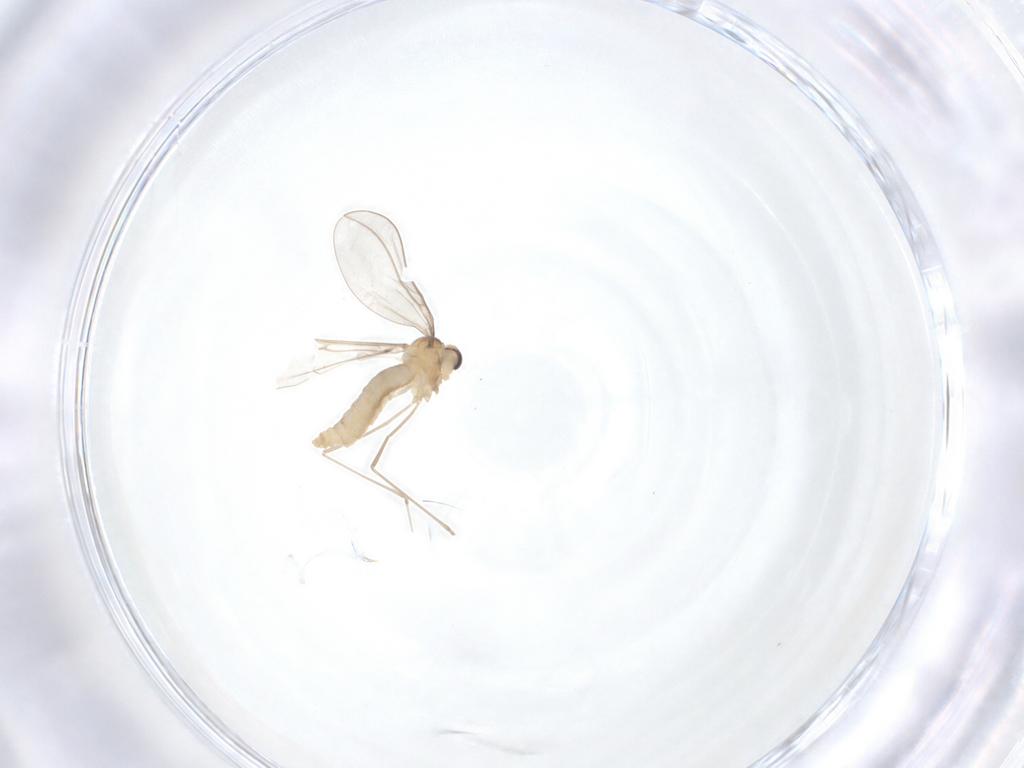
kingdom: Animalia
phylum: Arthropoda
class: Insecta
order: Diptera
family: Cecidomyiidae
